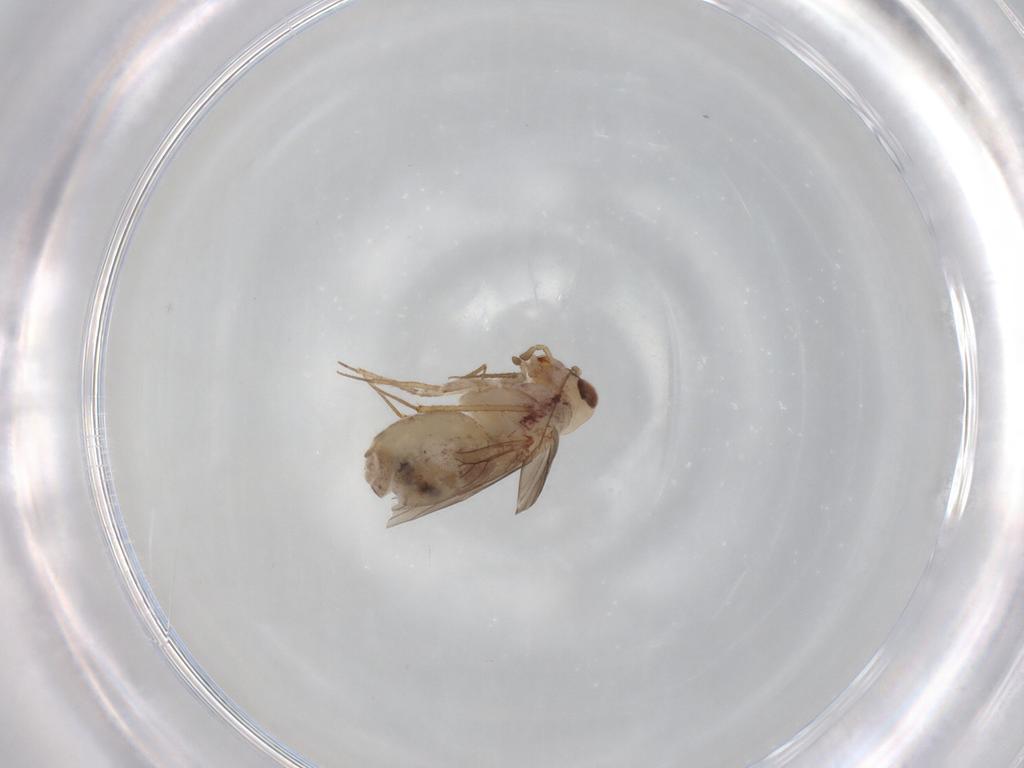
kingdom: Animalia
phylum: Arthropoda
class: Insecta
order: Psocodea
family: Lepidopsocidae
